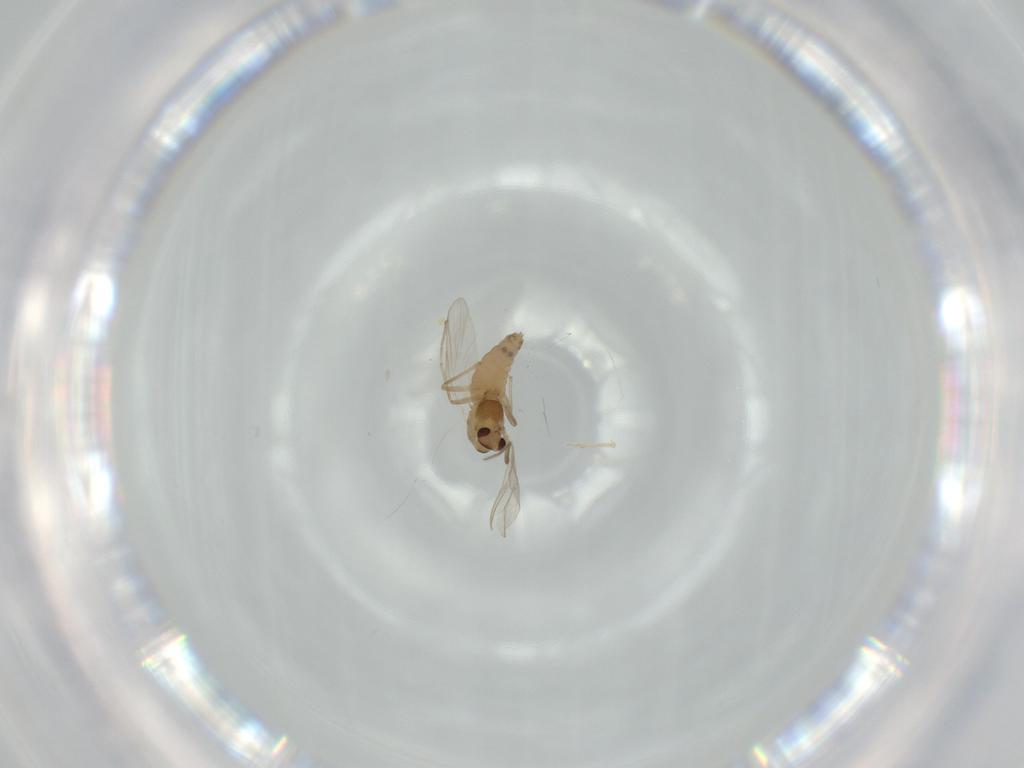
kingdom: Animalia
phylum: Arthropoda
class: Insecta
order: Diptera
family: Chironomidae
